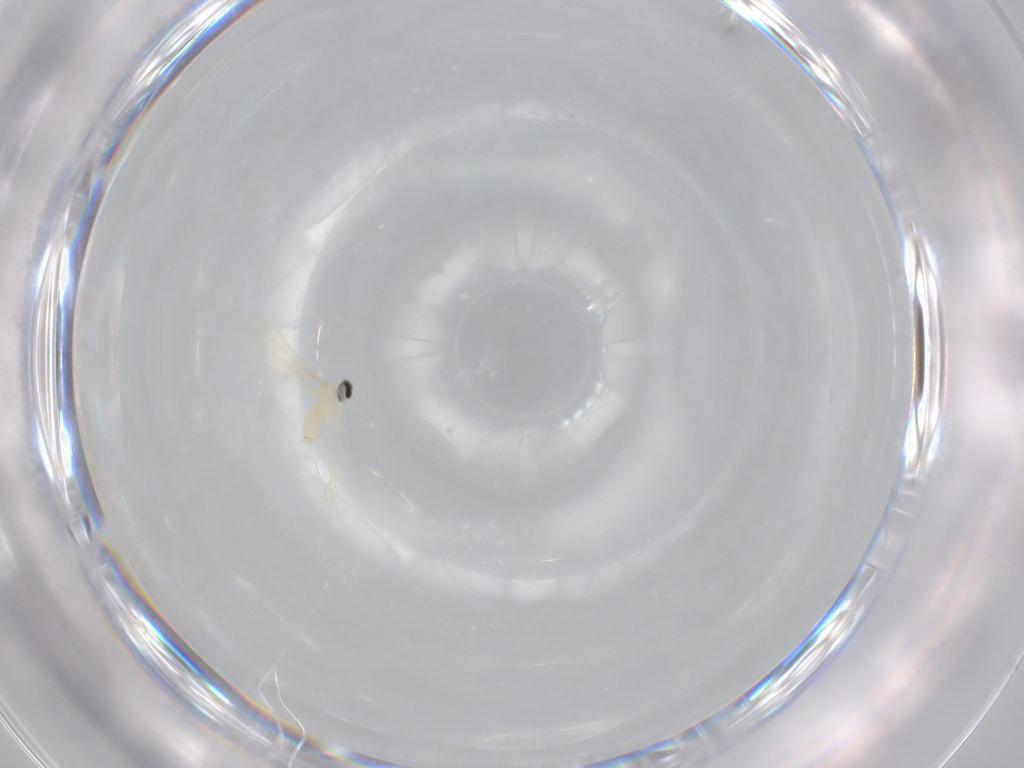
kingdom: Animalia
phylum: Arthropoda
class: Insecta
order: Diptera
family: Cecidomyiidae
